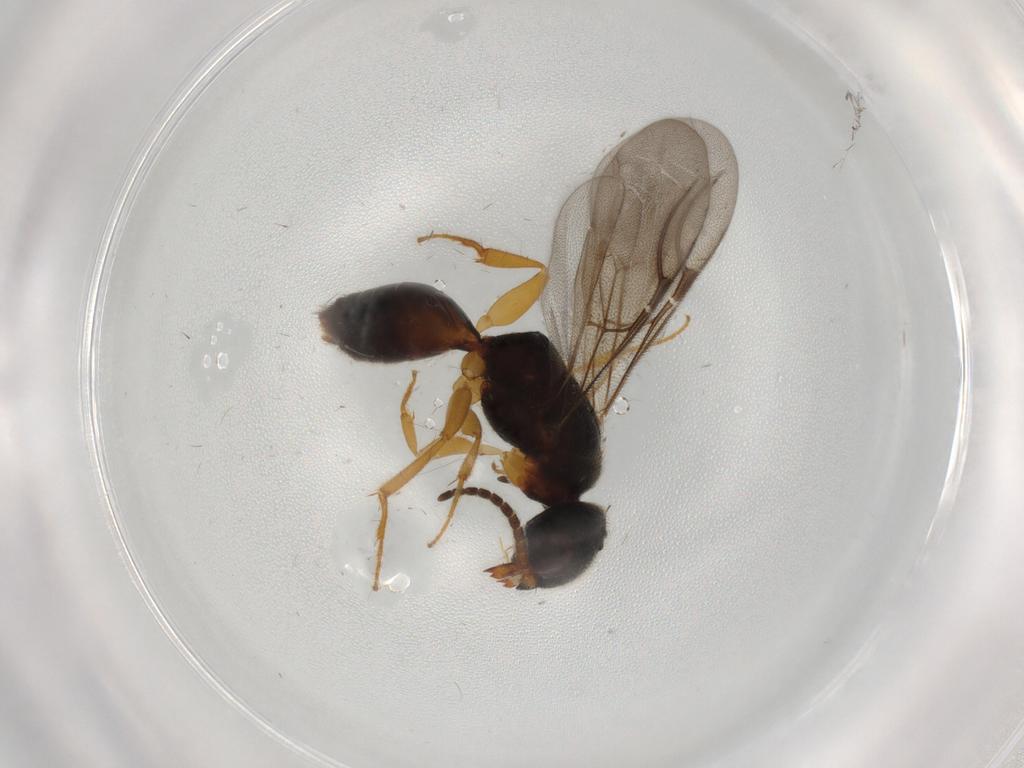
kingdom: Animalia
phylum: Arthropoda
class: Insecta
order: Hymenoptera
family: Bethylidae
